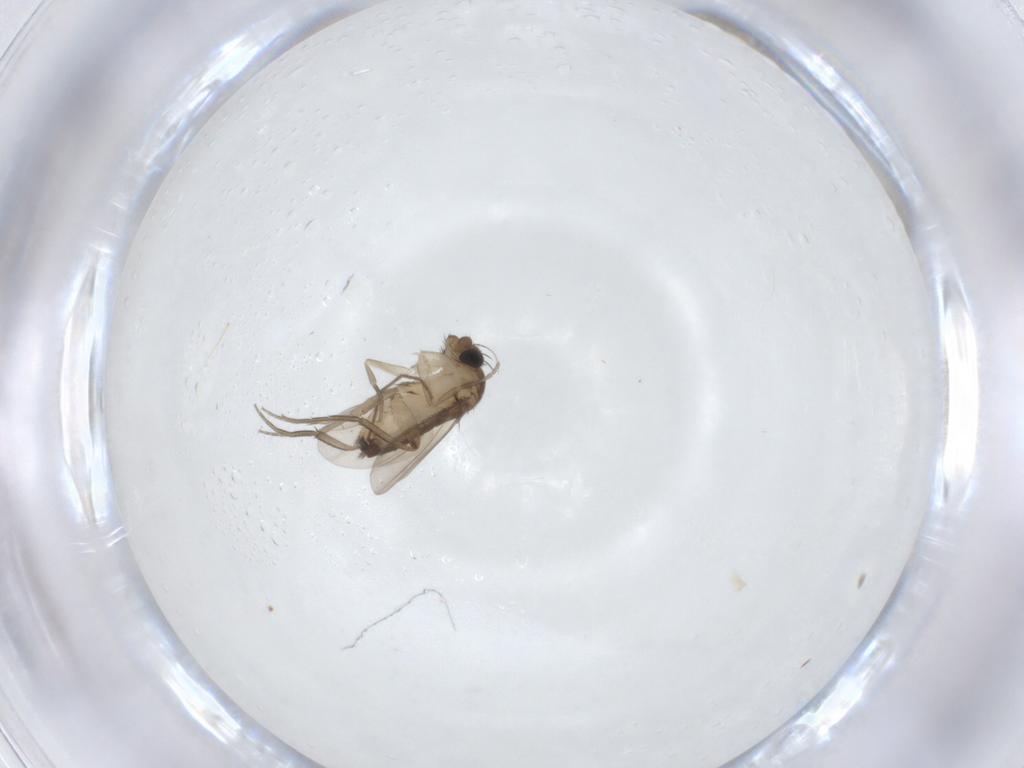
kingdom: Animalia
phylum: Arthropoda
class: Insecta
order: Diptera
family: Phoridae
